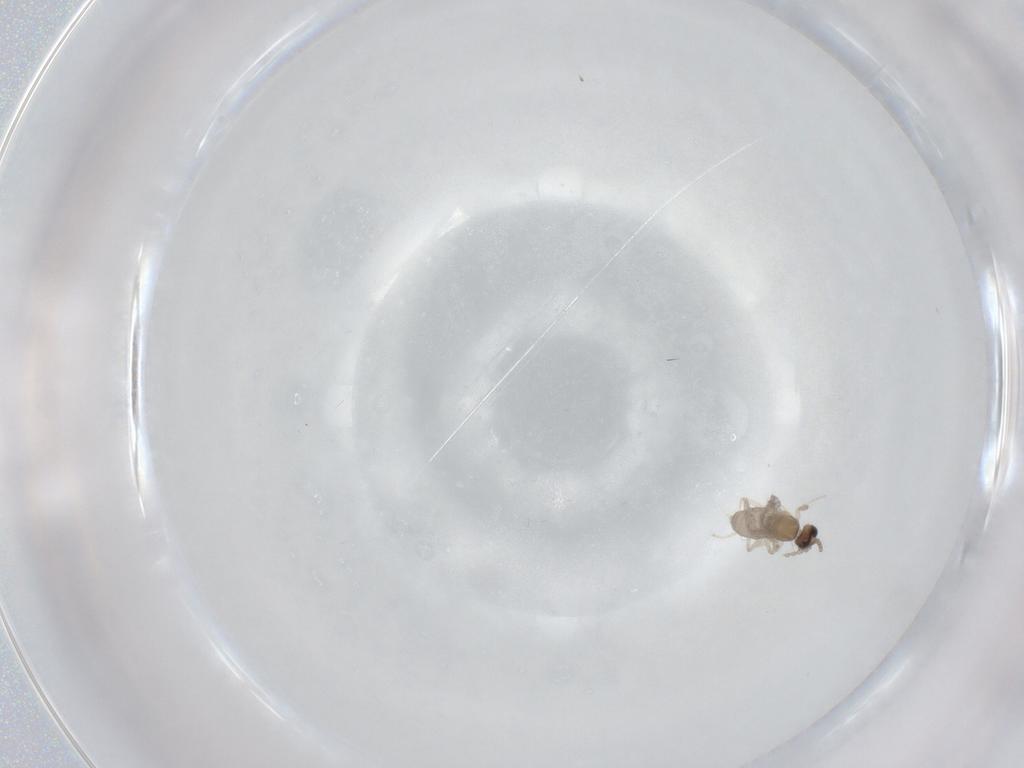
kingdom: Animalia
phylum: Arthropoda
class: Insecta
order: Diptera
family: Cecidomyiidae
